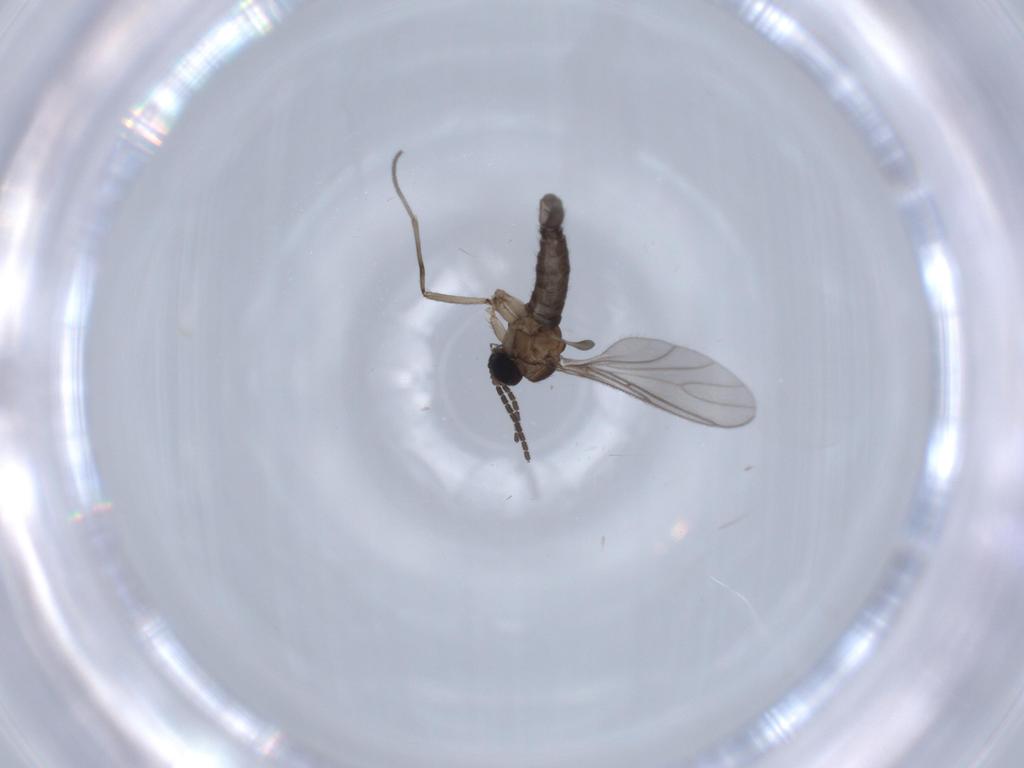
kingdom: Animalia
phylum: Arthropoda
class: Insecta
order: Diptera
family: Sciaridae
